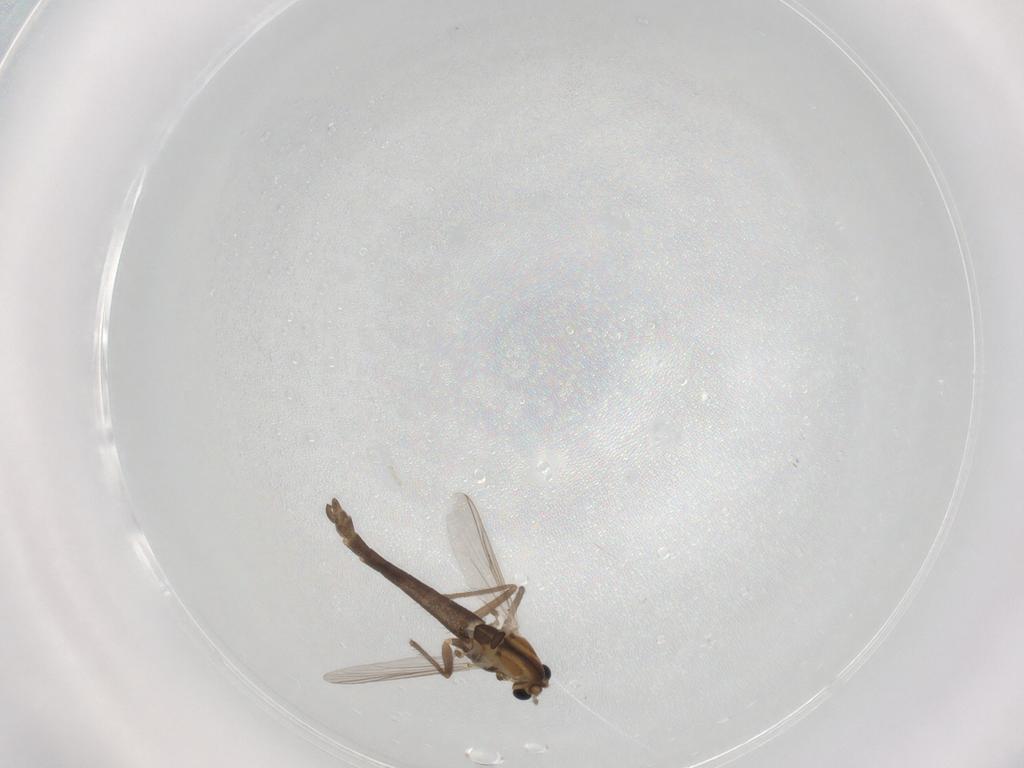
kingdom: Animalia
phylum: Arthropoda
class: Insecta
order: Diptera
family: Chironomidae
